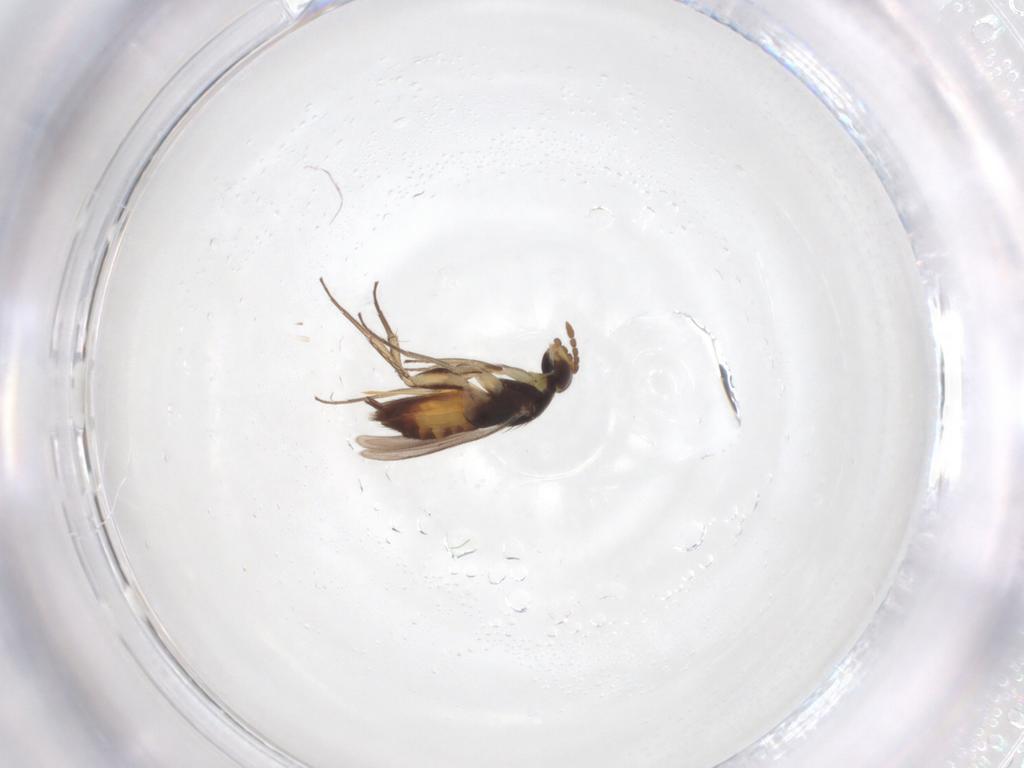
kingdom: Animalia
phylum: Arthropoda
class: Insecta
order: Hymenoptera
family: Eulophidae
